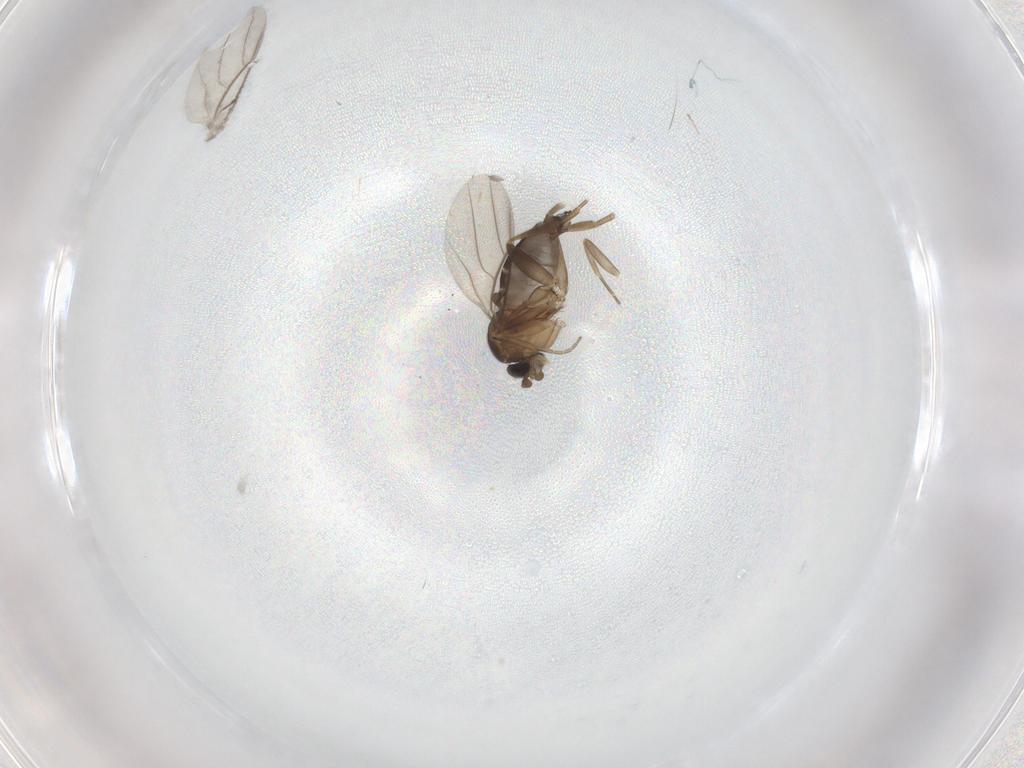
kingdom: Animalia
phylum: Arthropoda
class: Insecta
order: Diptera
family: Phoridae
